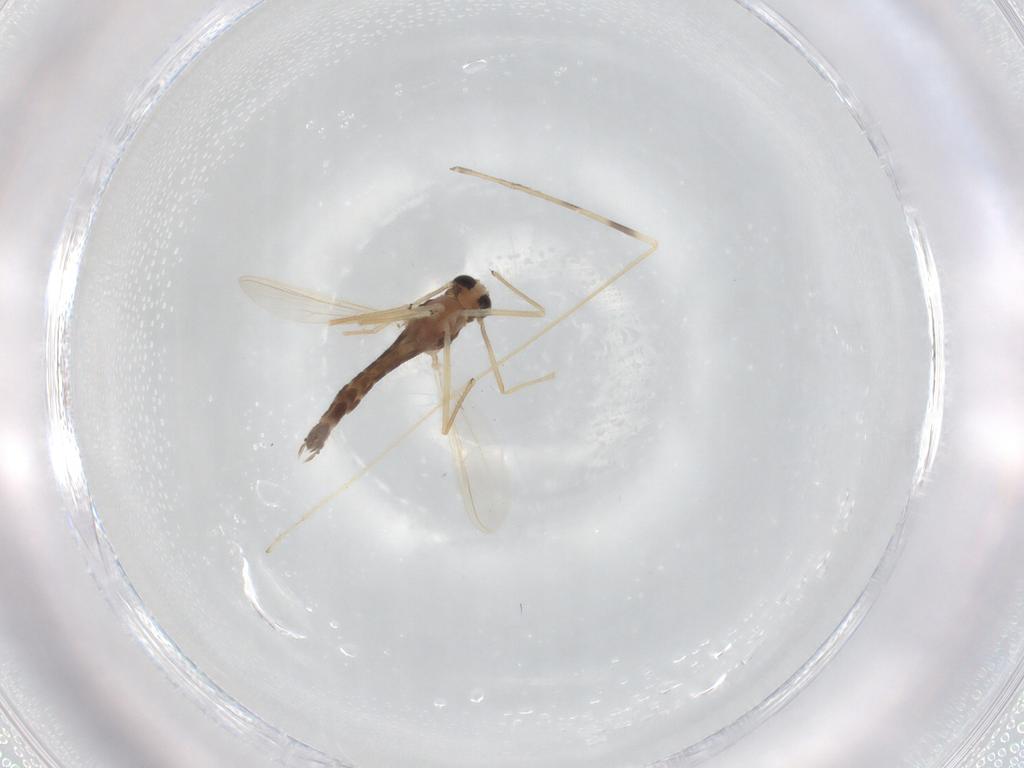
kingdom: Animalia
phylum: Arthropoda
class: Insecta
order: Diptera
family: Chironomidae
